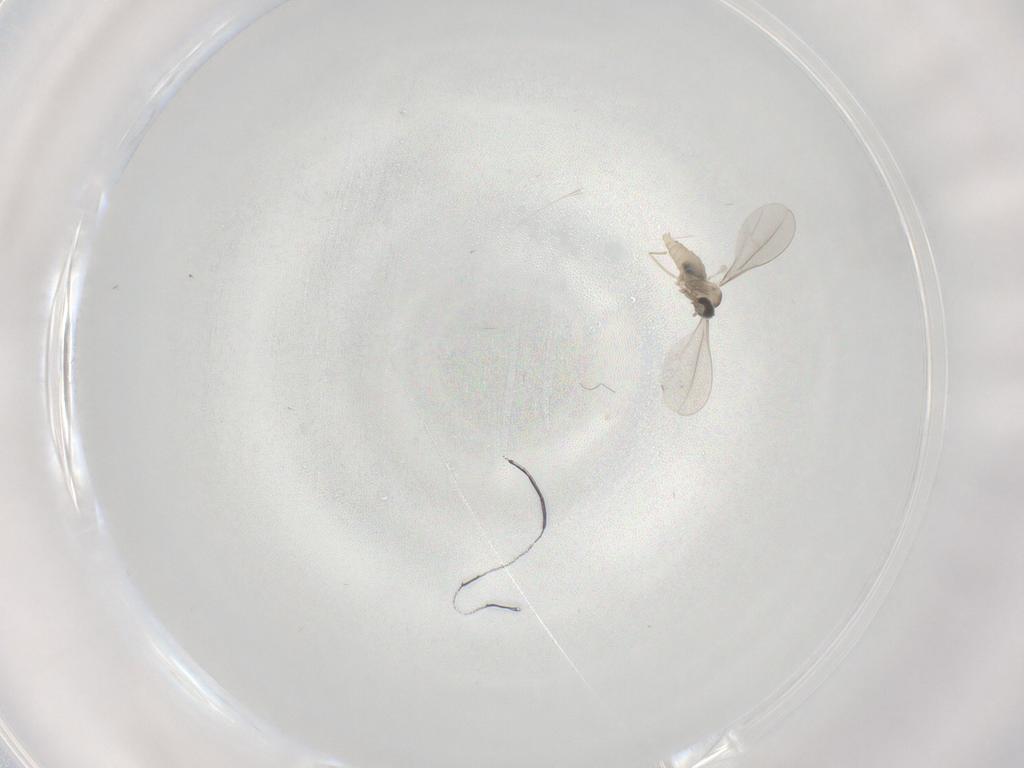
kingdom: Animalia
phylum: Arthropoda
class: Insecta
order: Diptera
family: Cecidomyiidae
